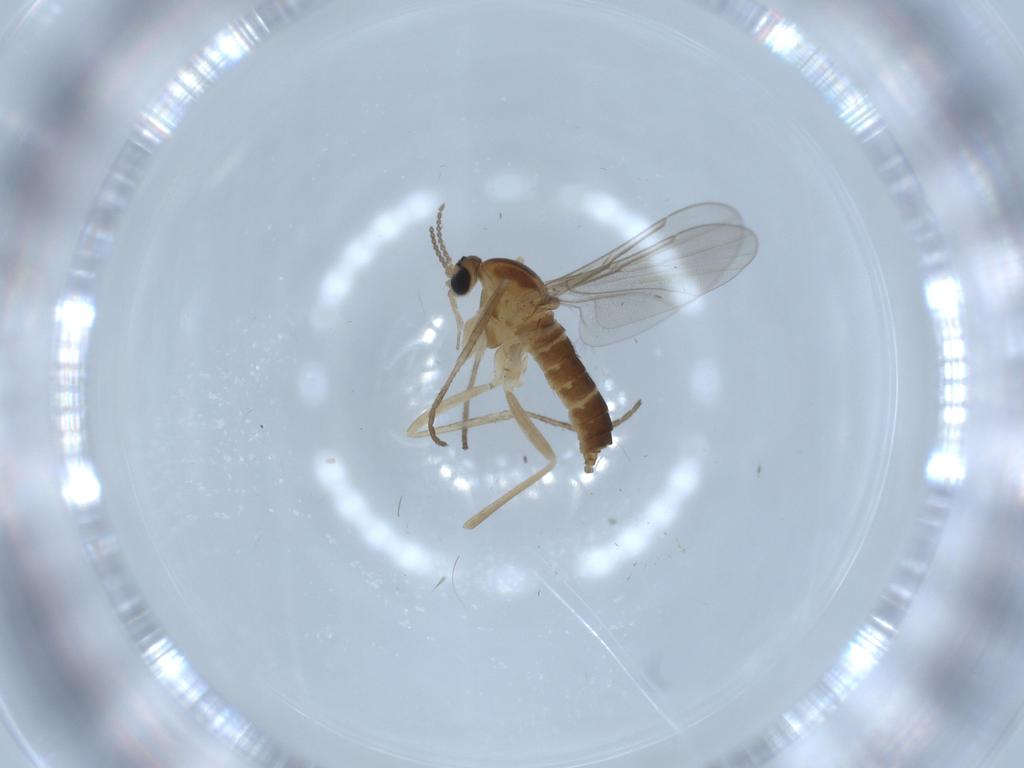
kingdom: Animalia
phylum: Arthropoda
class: Insecta
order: Diptera
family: Cecidomyiidae
